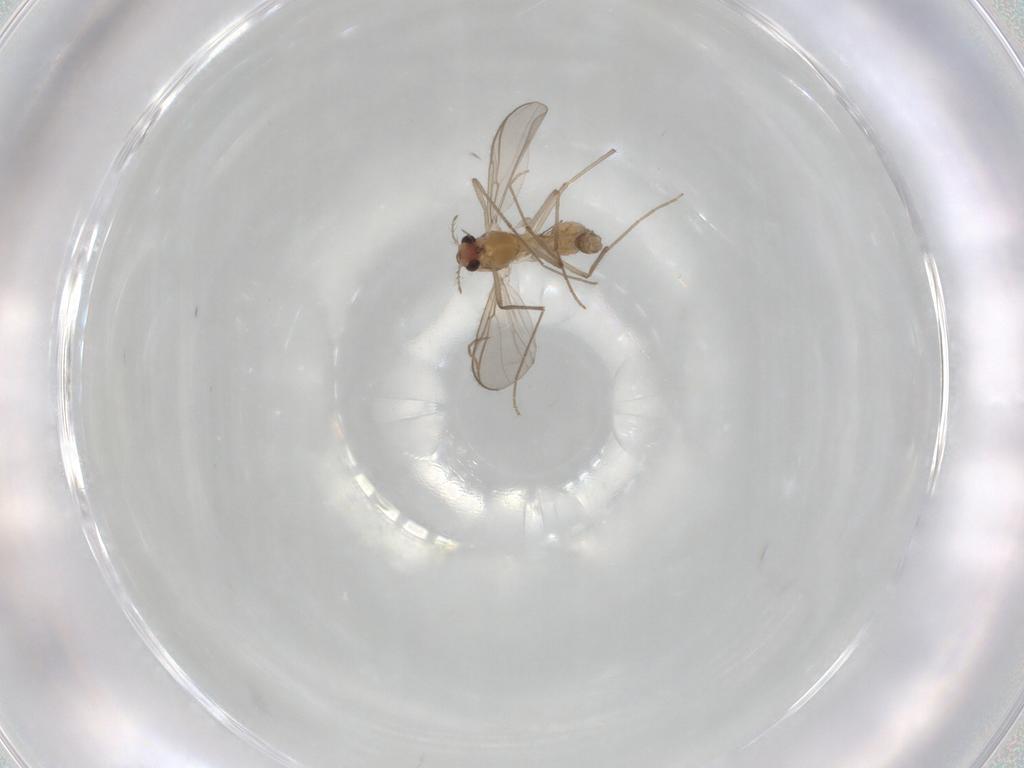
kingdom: Animalia
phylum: Arthropoda
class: Insecta
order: Diptera
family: Chironomidae
